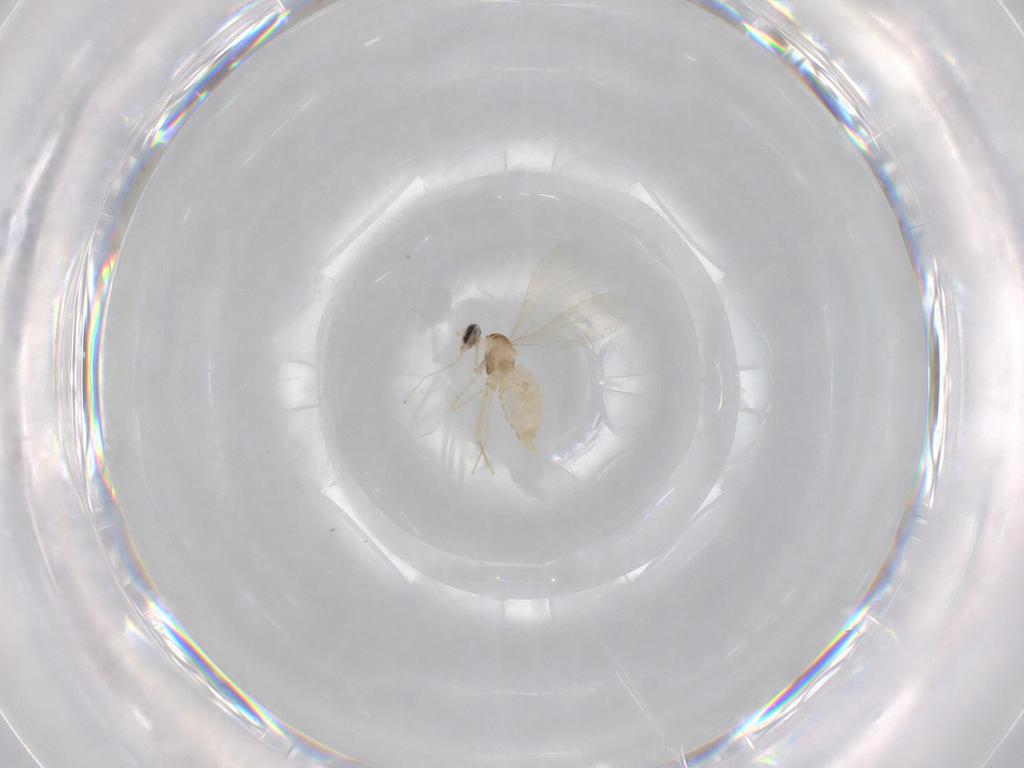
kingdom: Animalia
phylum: Arthropoda
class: Insecta
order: Diptera
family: Cecidomyiidae
